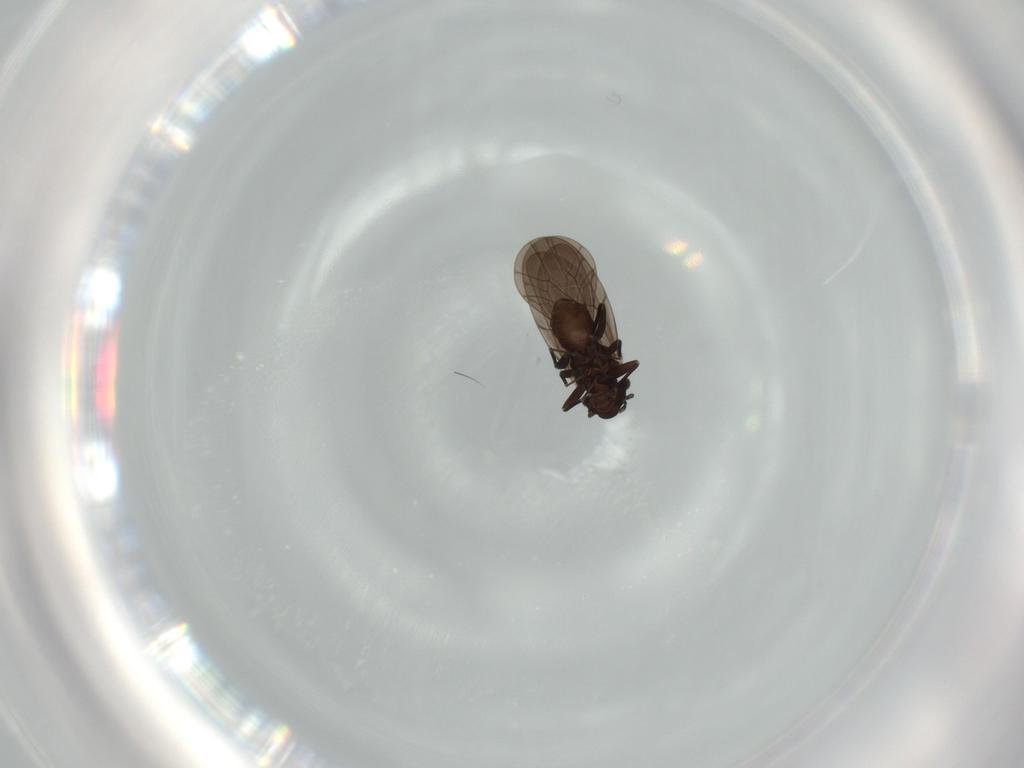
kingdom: Animalia
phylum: Arthropoda
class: Insecta
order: Psocodea
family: Lepidopsocidae
